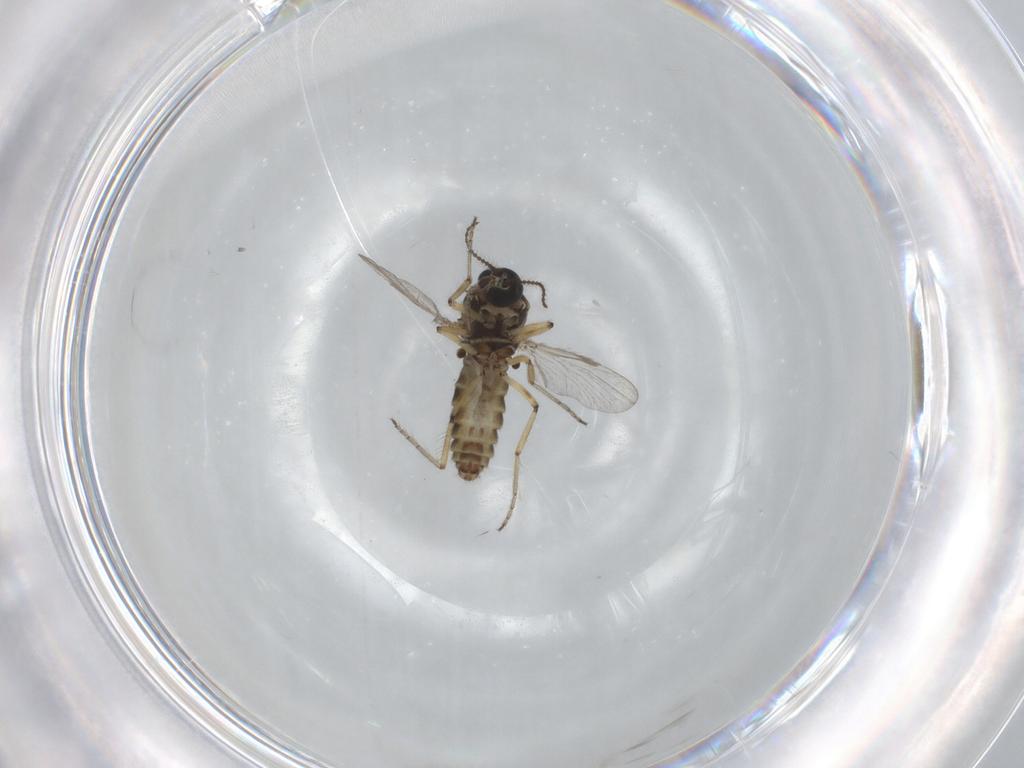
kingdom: Animalia
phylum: Arthropoda
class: Insecta
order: Diptera
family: Ceratopogonidae
